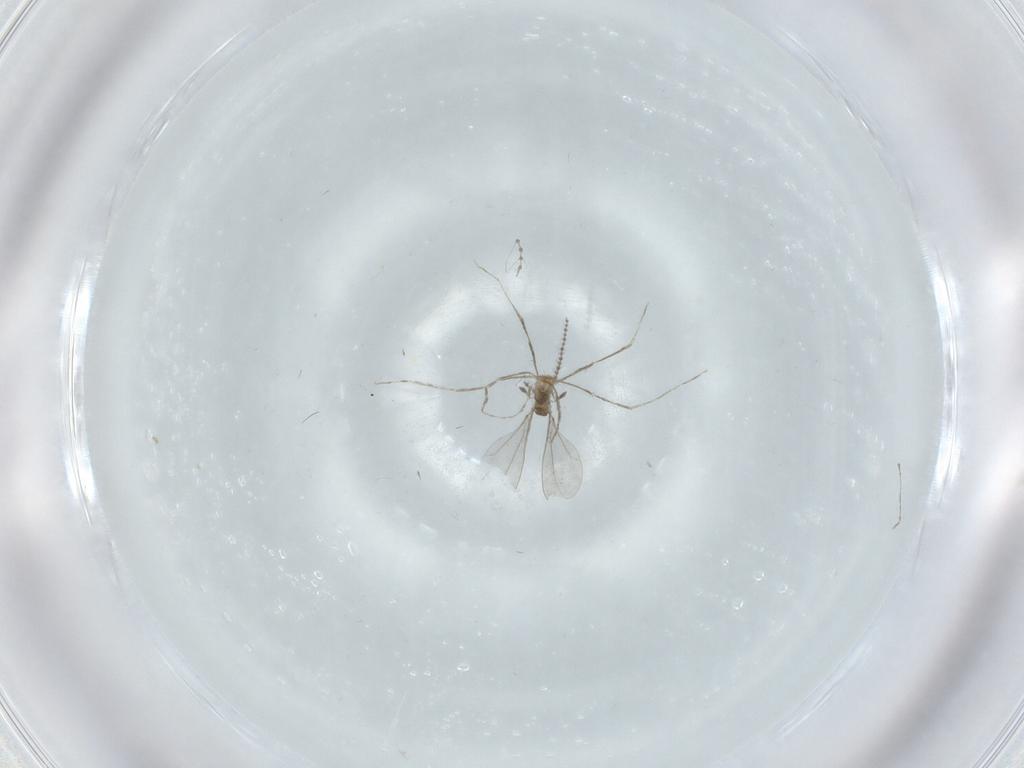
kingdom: Animalia
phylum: Arthropoda
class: Insecta
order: Diptera
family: Cecidomyiidae
